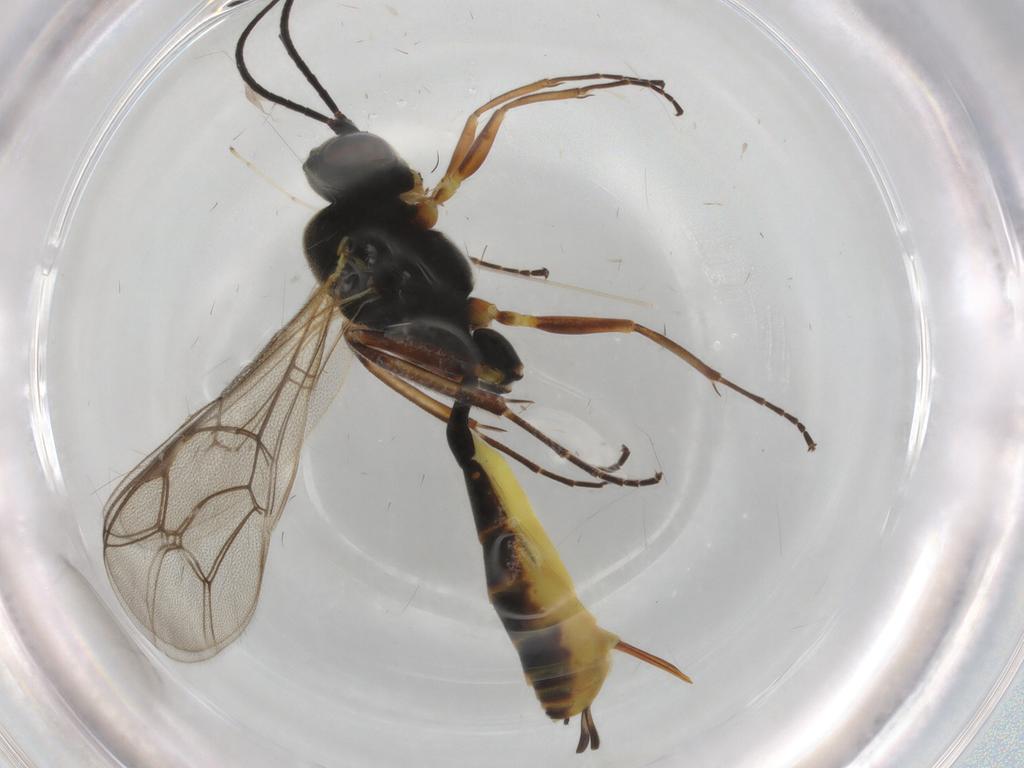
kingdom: Animalia
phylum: Arthropoda
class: Insecta
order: Hymenoptera
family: Ichneumonidae
